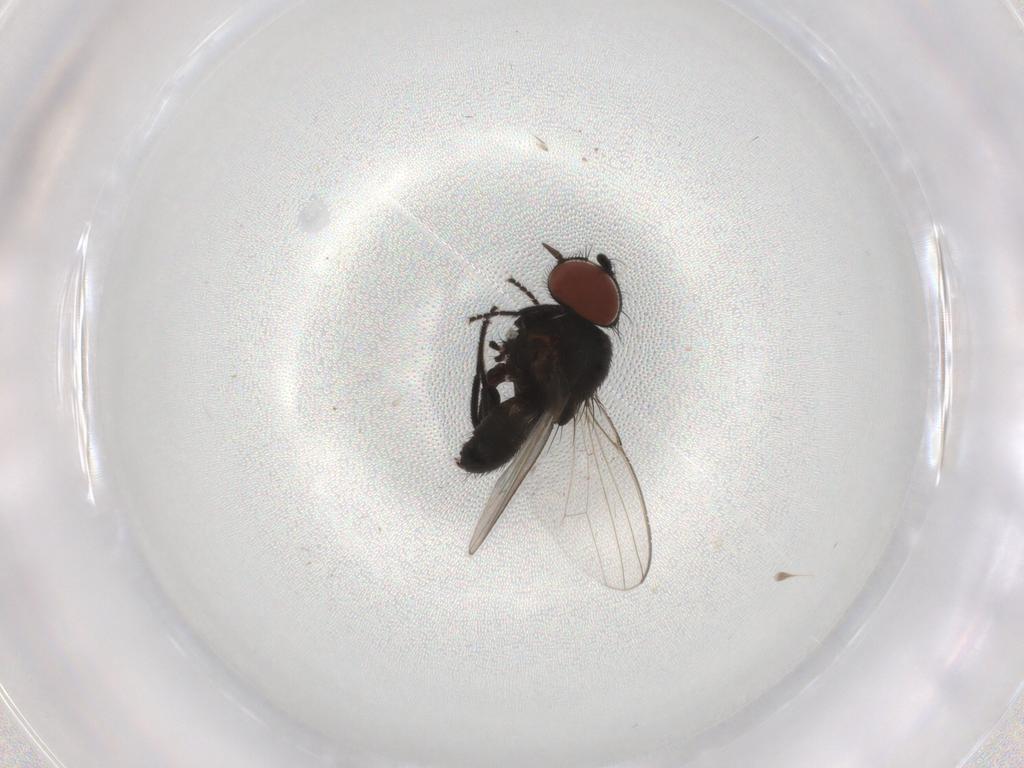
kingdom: Animalia
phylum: Arthropoda
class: Insecta
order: Diptera
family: Milichiidae
